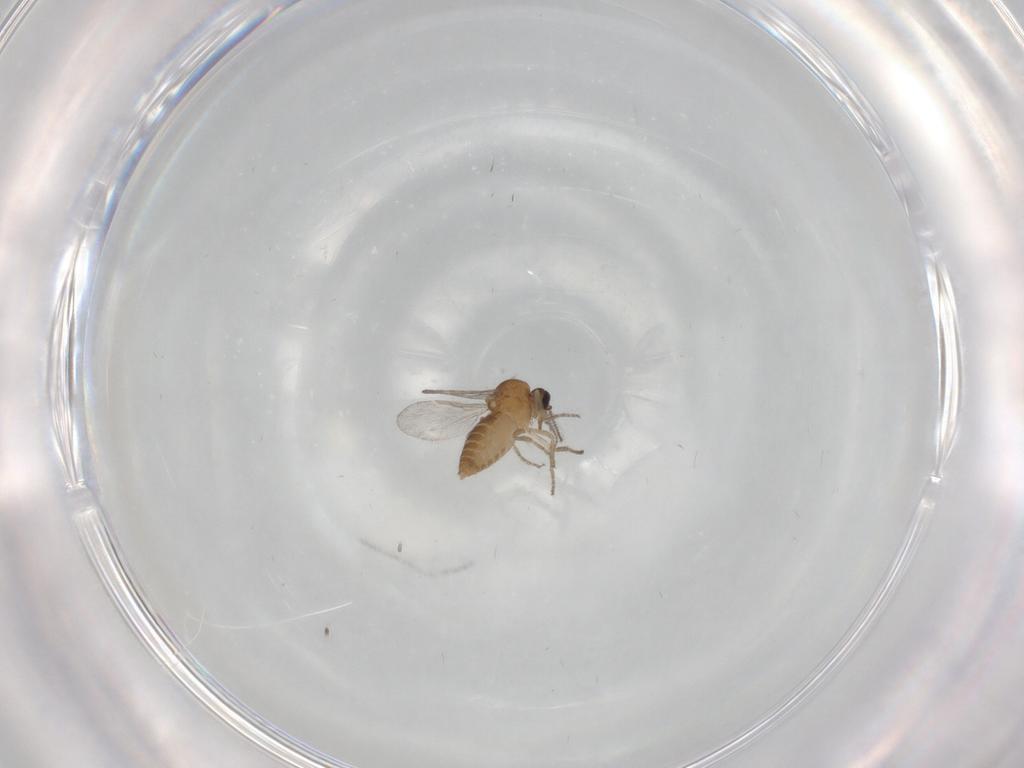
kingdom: Animalia
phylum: Arthropoda
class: Insecta
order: Diptera
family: Ceratopogonidae
